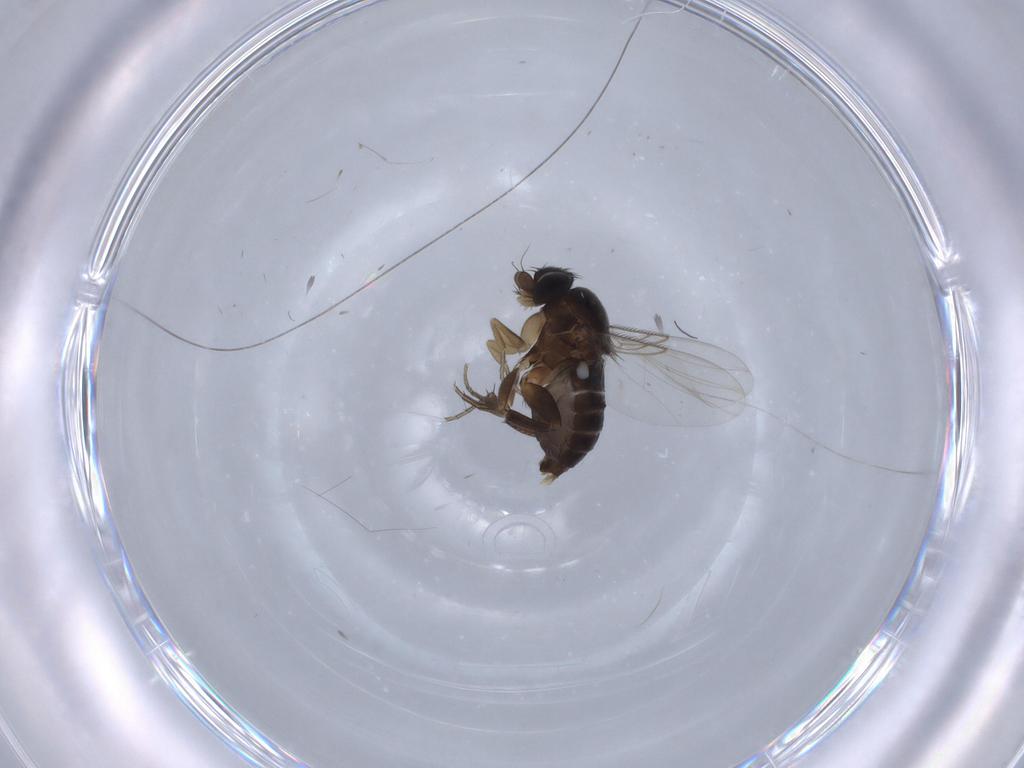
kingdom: Animalia
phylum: Arthropoda
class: Insecta
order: Diptera
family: Phoridae
